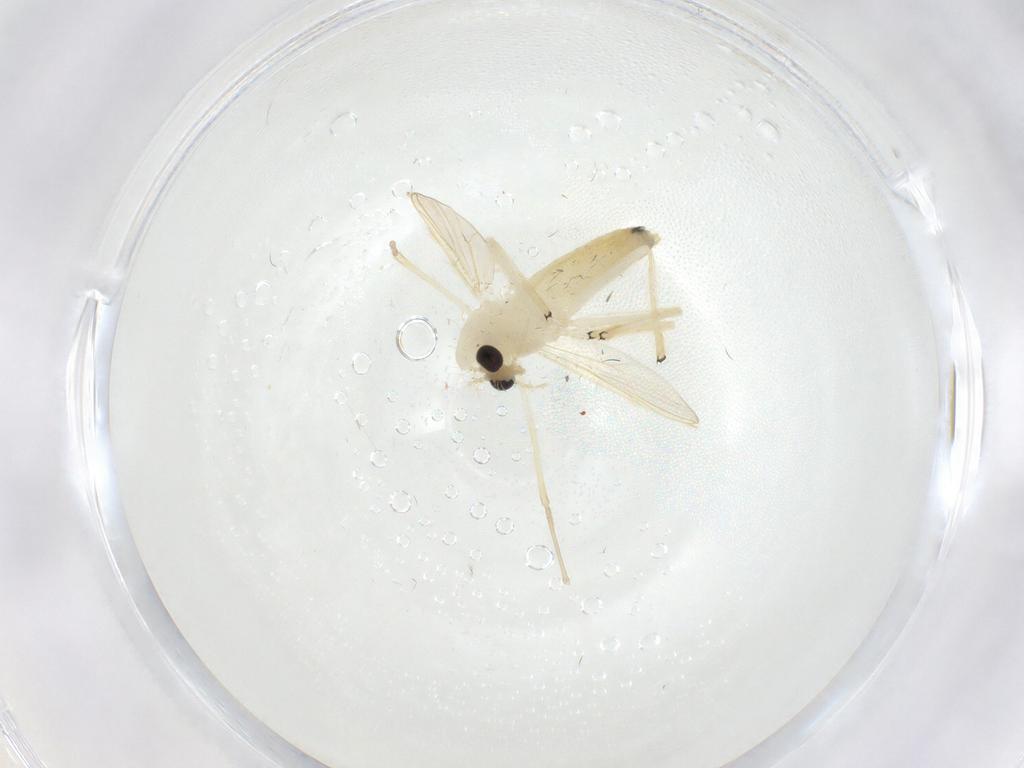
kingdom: Animalia
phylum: Arthropoda
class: Insecta
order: Diptera
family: Chironomidae
